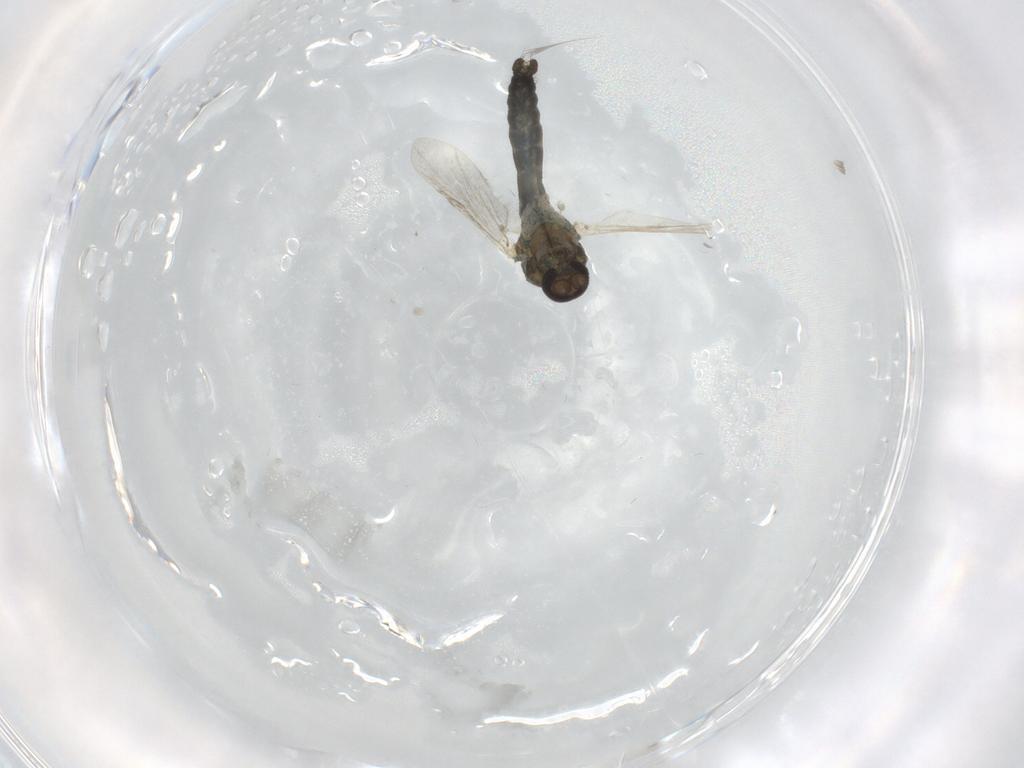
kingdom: Animalia
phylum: Arthropoda
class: Insecta
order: Diptera
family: Ceratopogonidae
